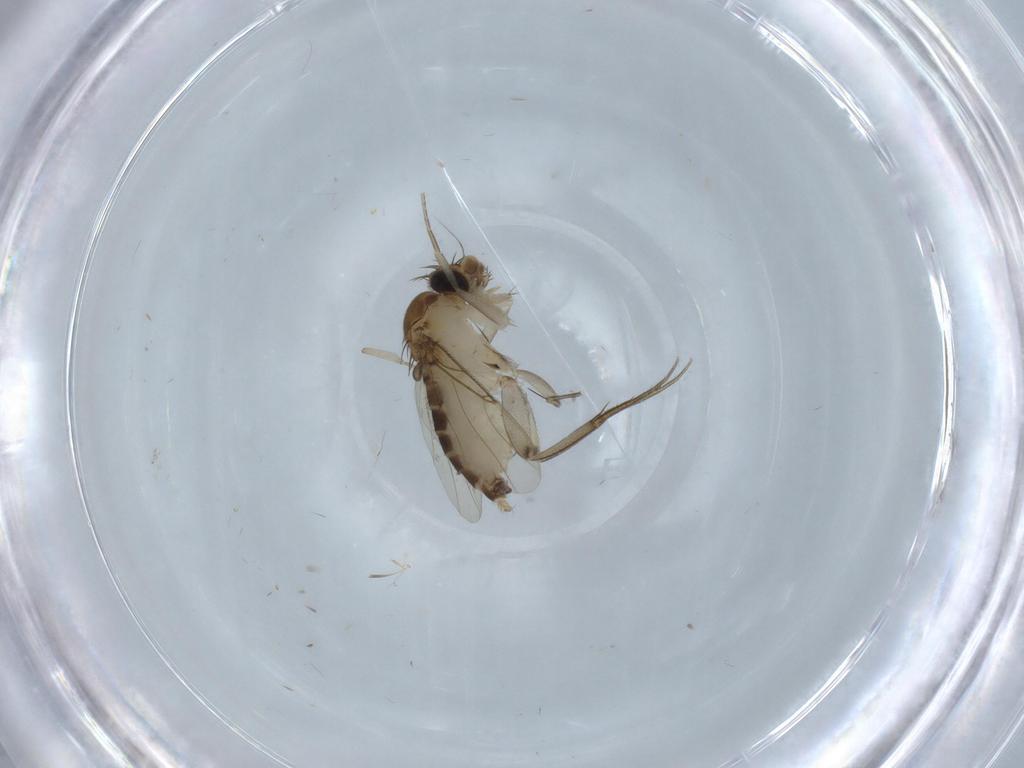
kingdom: Animalia
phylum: Arthropoda
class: Insecta
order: Diptera
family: Phoridae
